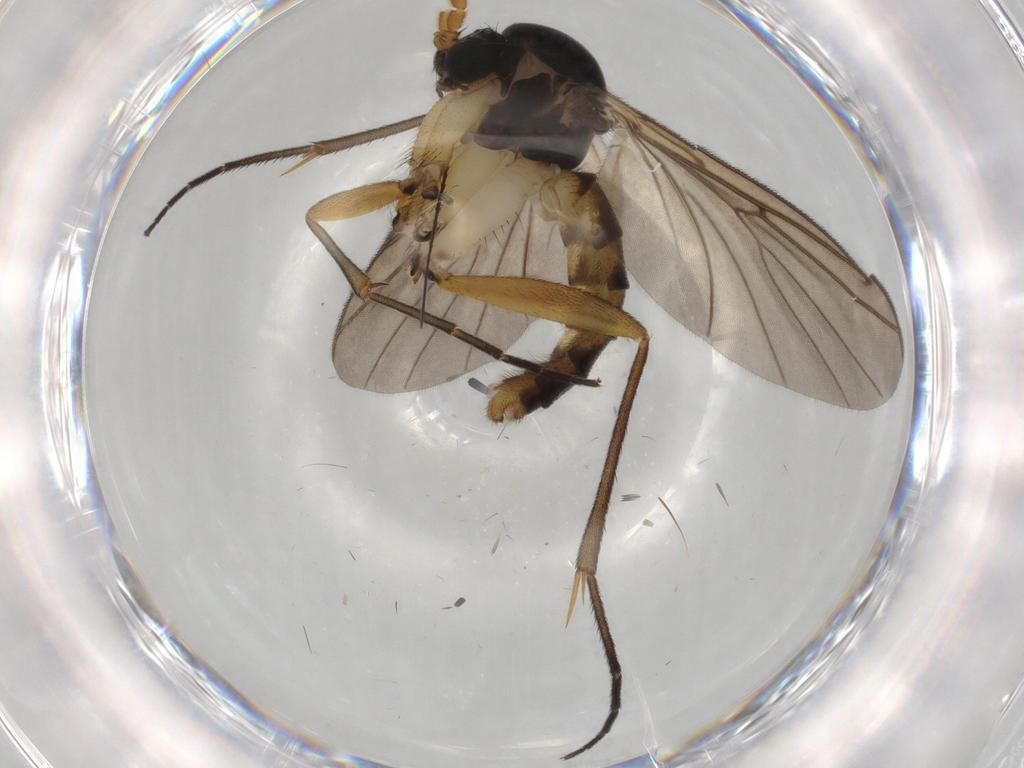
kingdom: Animalia
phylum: Arthropoda
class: Insecta
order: Diptera
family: Mycetophilidae
